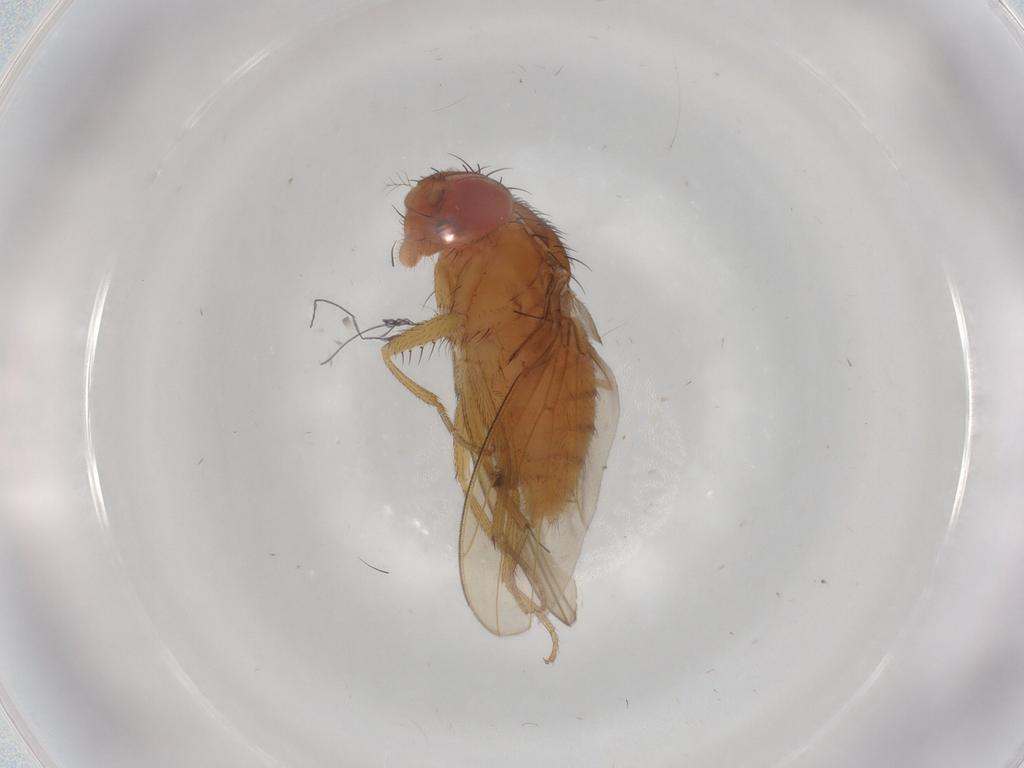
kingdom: Animalia
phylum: Arthropoda
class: Insecta
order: Diptera
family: Drosophilidae
